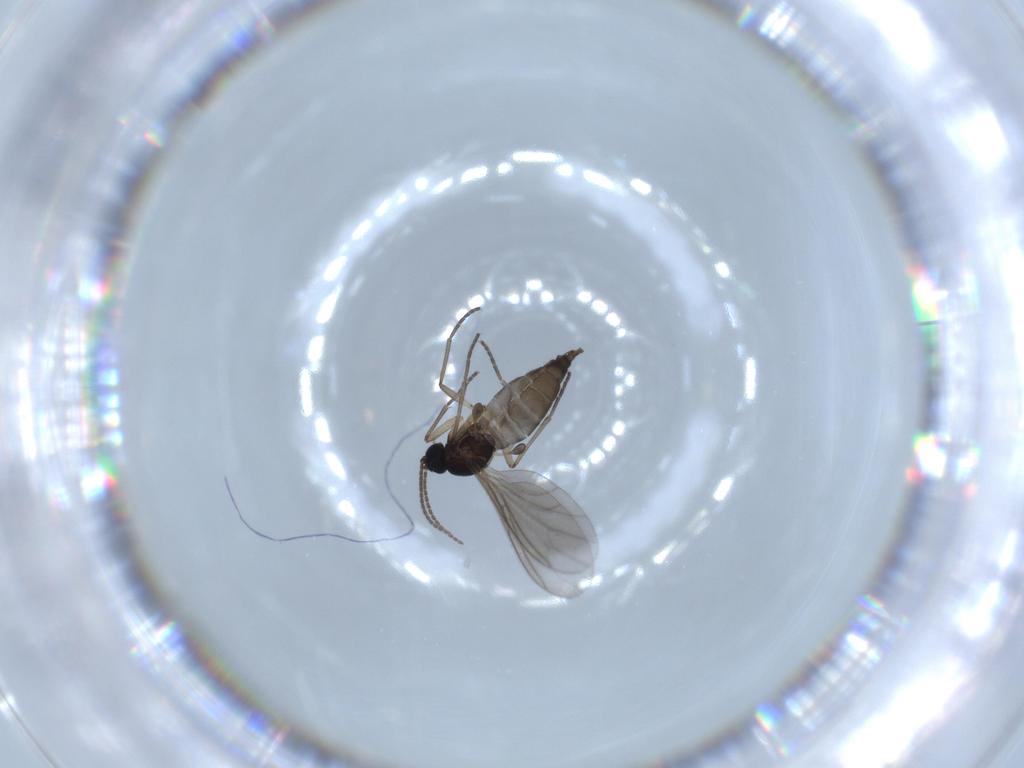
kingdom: Animalia
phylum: Arthropoda
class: Insecta
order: Diptera
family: Sciaridae
